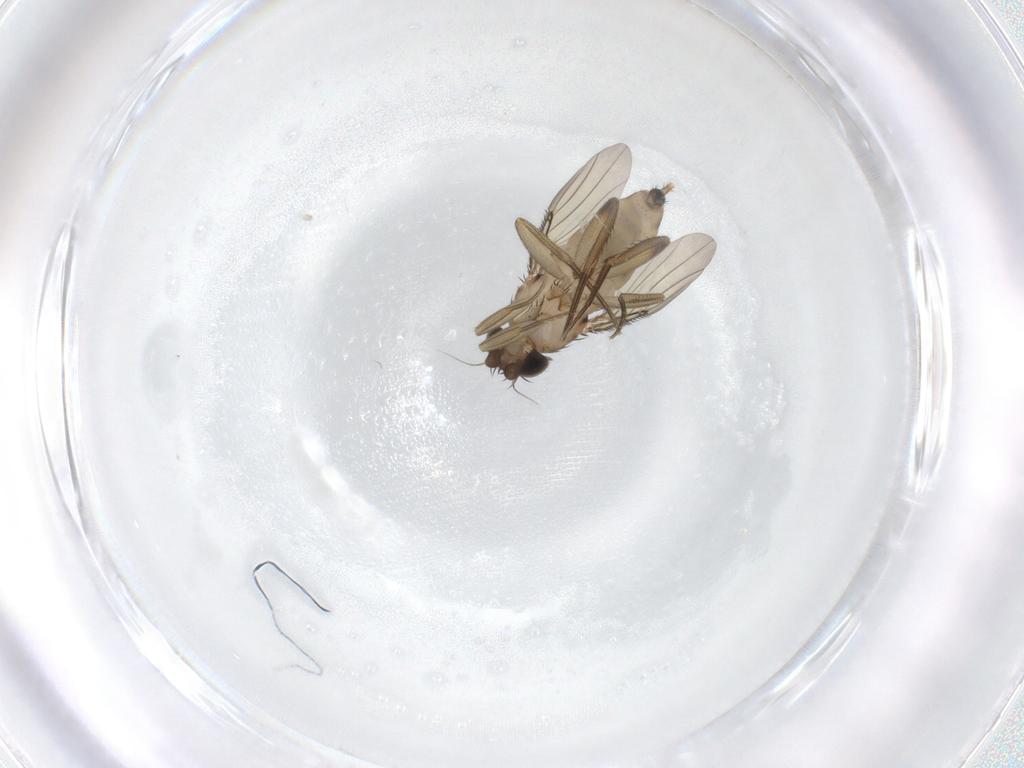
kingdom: Animalia
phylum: Arthropoda
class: Insecta
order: Diptera
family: Phoridae
